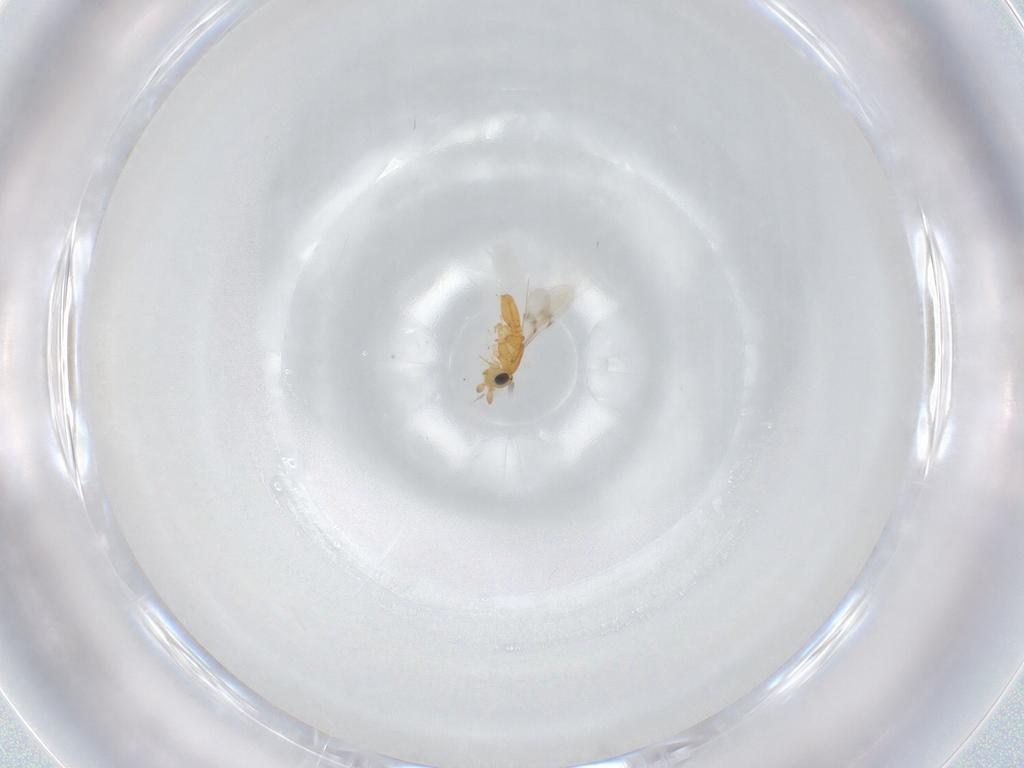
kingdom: Animalia
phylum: Arthropoda
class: Insecta
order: Hymenoptera
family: Scelionidae
